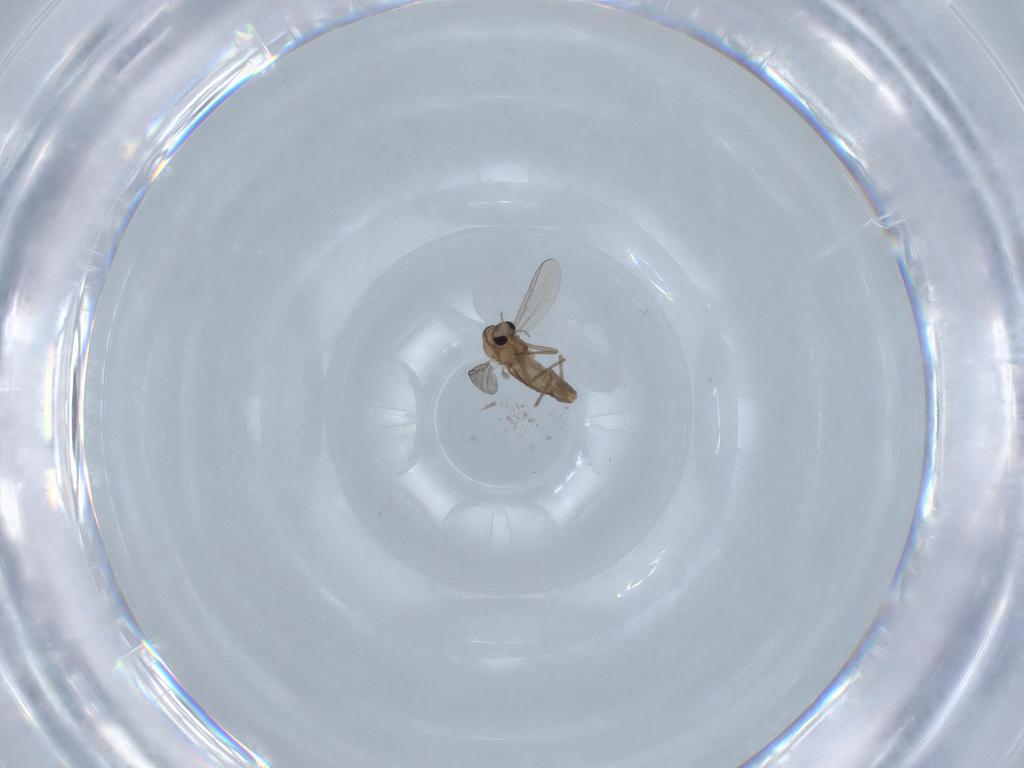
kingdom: Animalia
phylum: Arthropoda
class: Insecta
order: Diptera
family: Chironomidae
